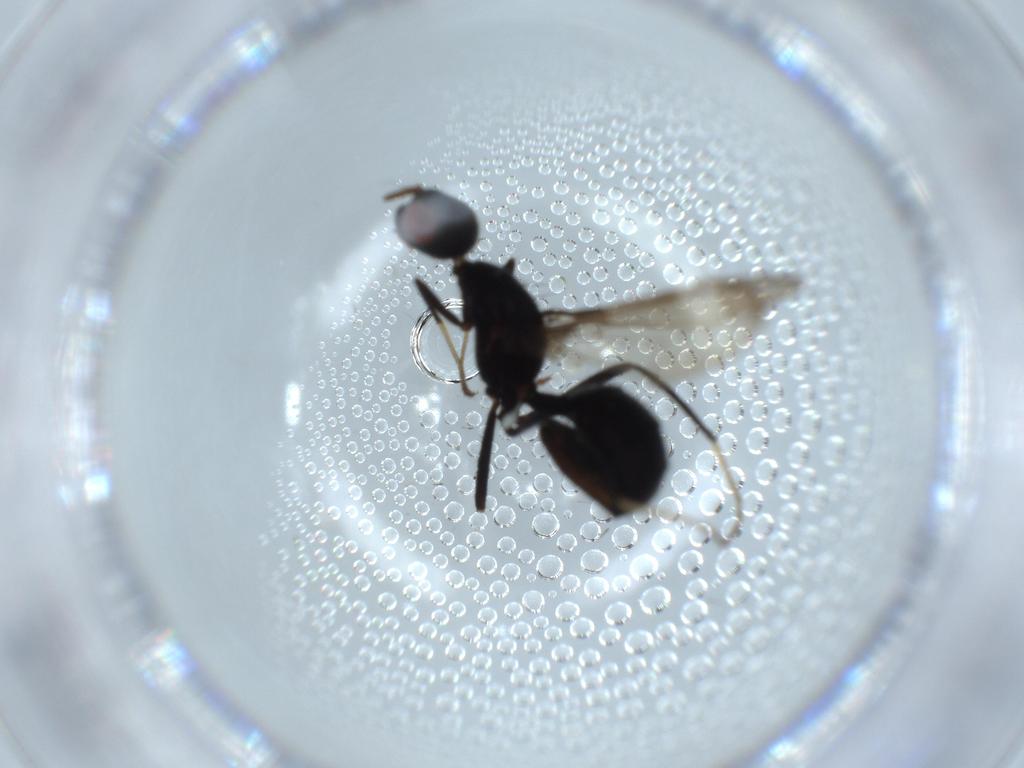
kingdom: Animalia
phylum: Arthropoda
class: Insecta
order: Diptera
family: Richardiidae
